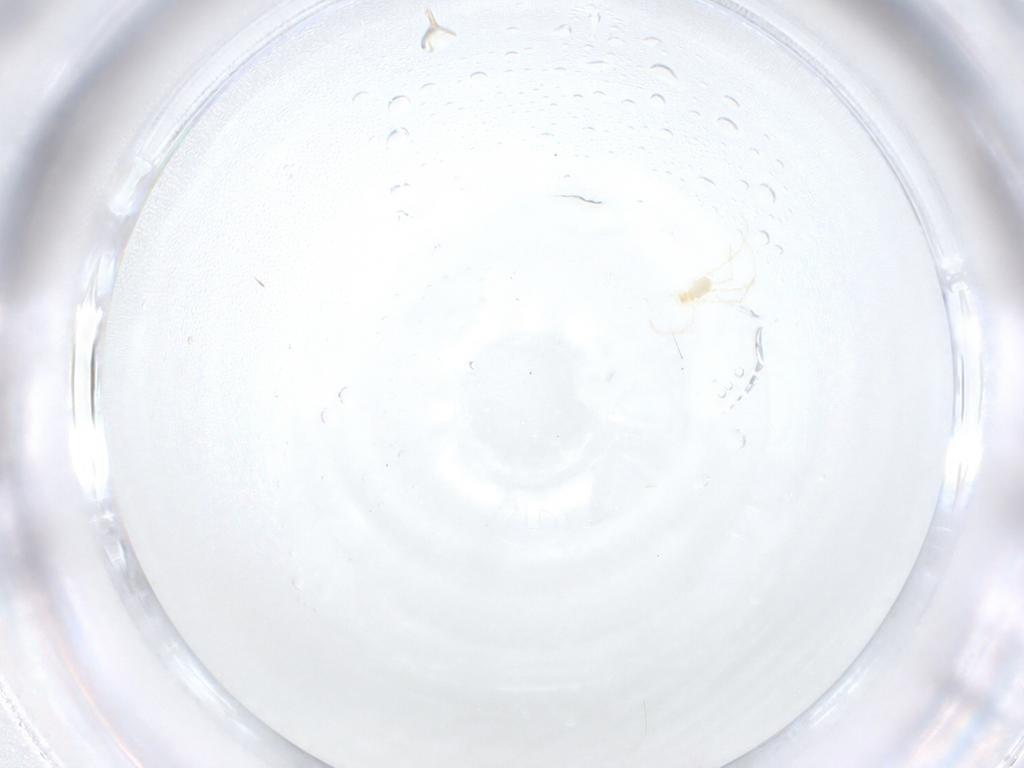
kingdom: Animalia
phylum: Arthropoda
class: Arachnida
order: Trombidiformes
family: Erythraeidae
